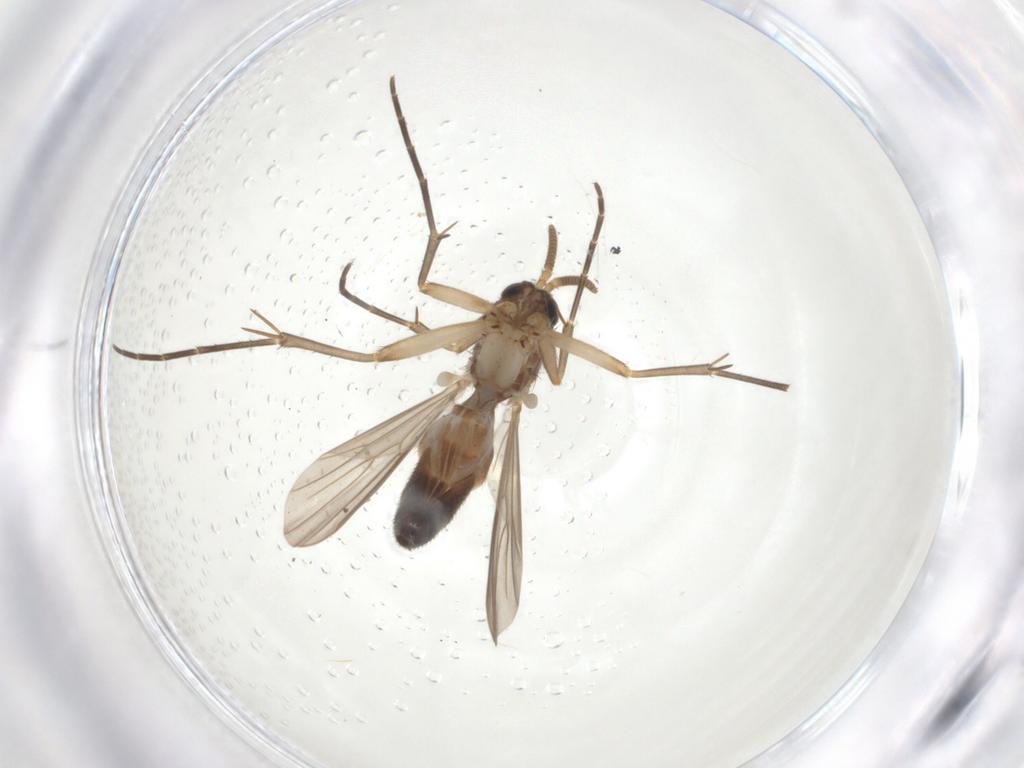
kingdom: Animalia
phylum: Arthropoda
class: Insecta
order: Diptera
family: Mycetophilidae
